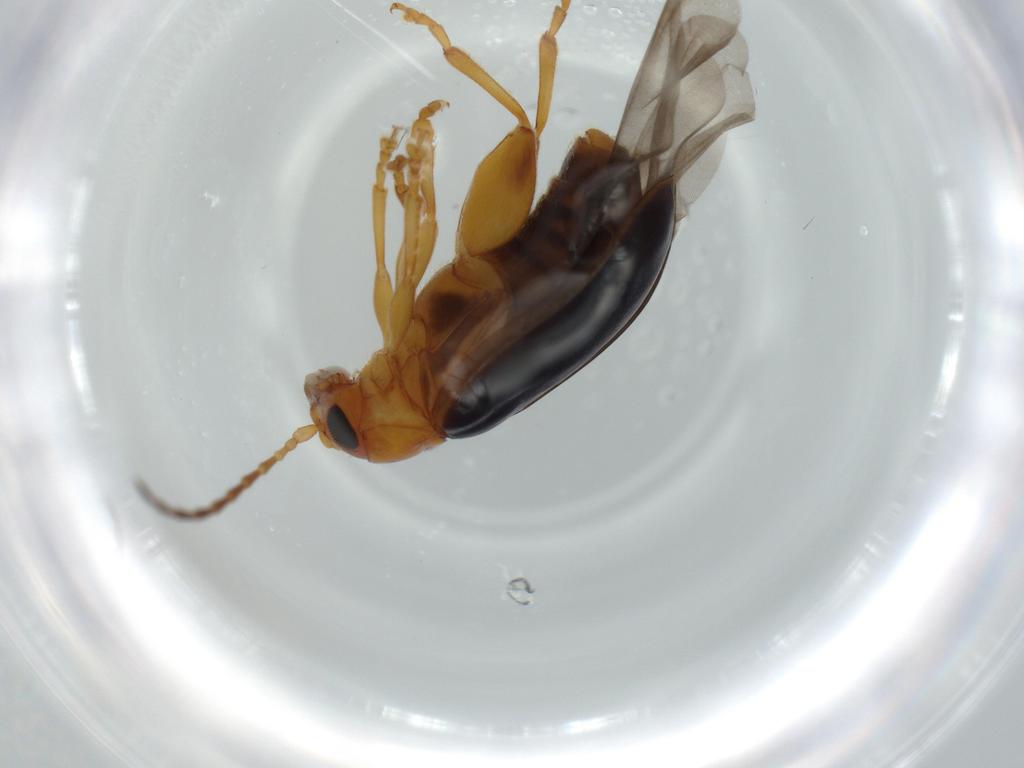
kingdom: Animalia
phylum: Arthropoda
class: Insecta
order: Coleoptera
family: Chrysomelidae
